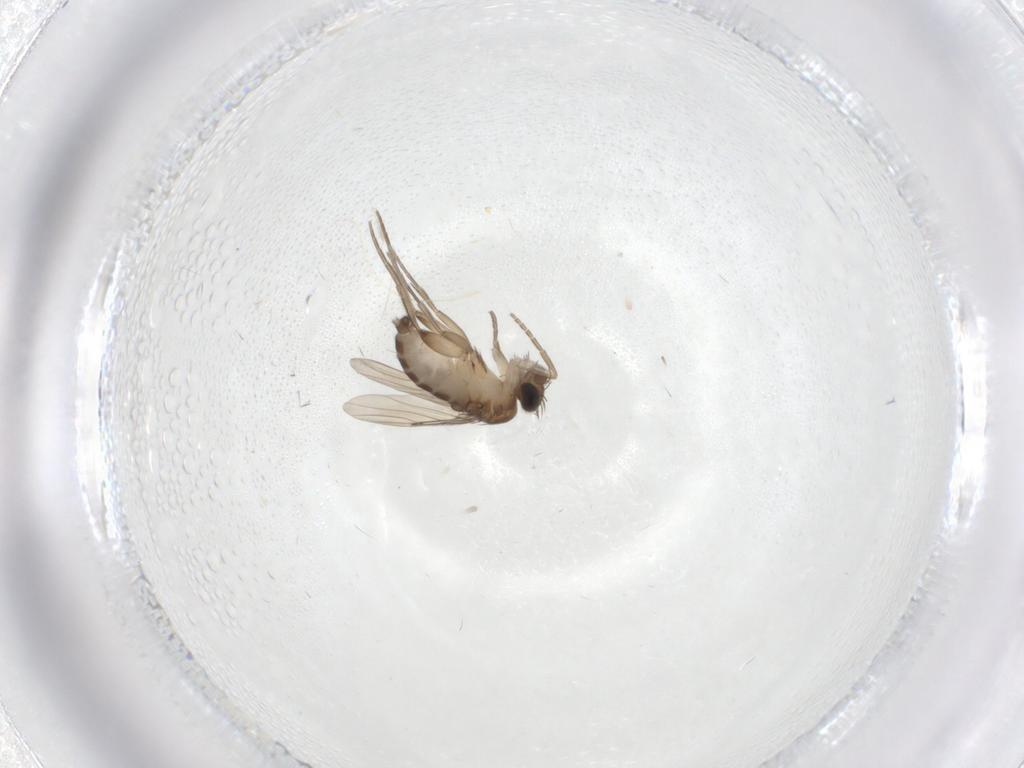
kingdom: Animalia
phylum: Arthropoda
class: Insecta
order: Diptera
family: Phoridae
